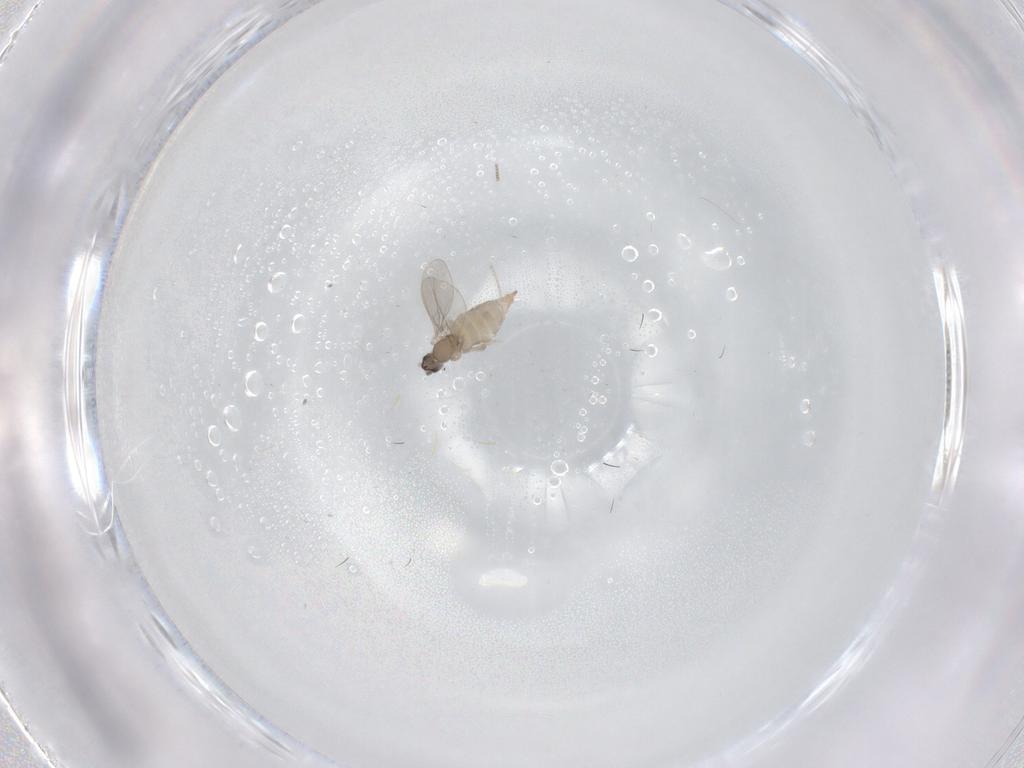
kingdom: Animalia
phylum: Arthropoda
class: Insecta
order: Diptera
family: Cecidomyiidae
